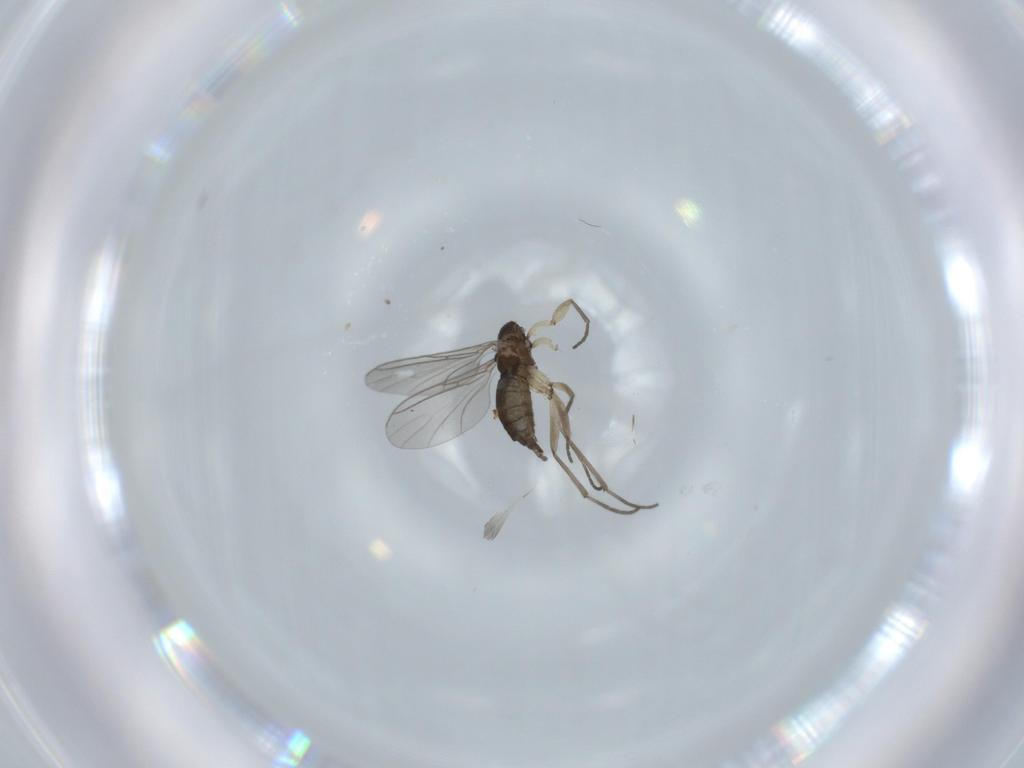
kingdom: Animalia
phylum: Arthropoda
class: Insecta
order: Diptera
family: Sciaridae
